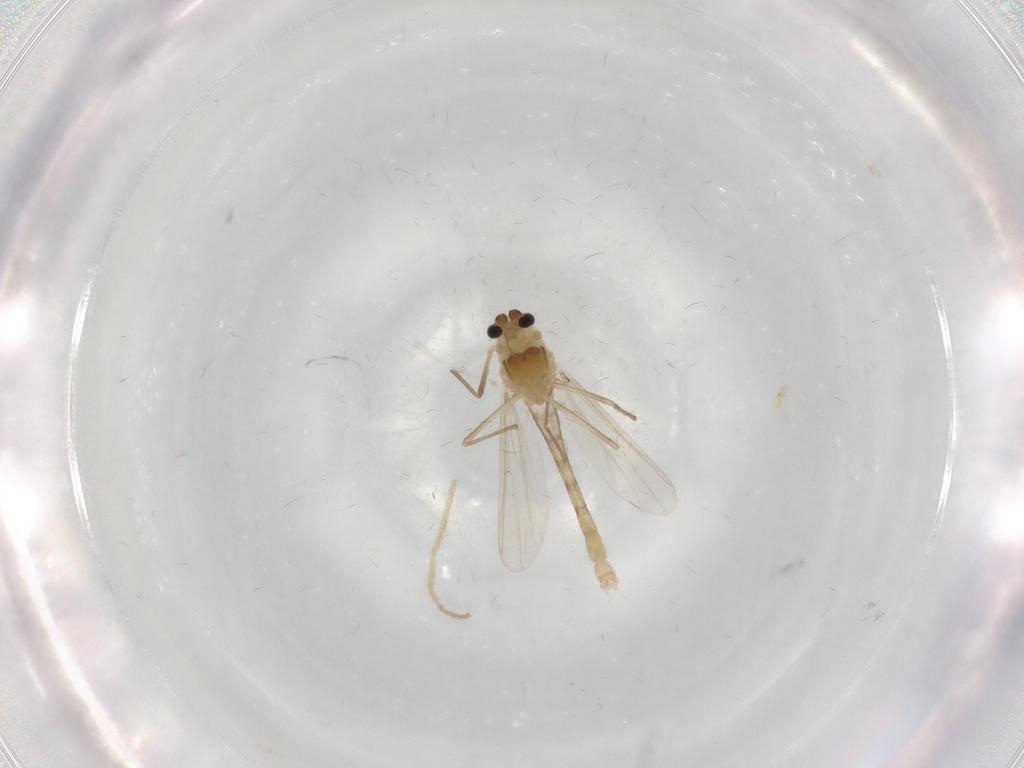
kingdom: Animalia
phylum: Arthropoda
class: Insecta
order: Diptera
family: Chironomidae
